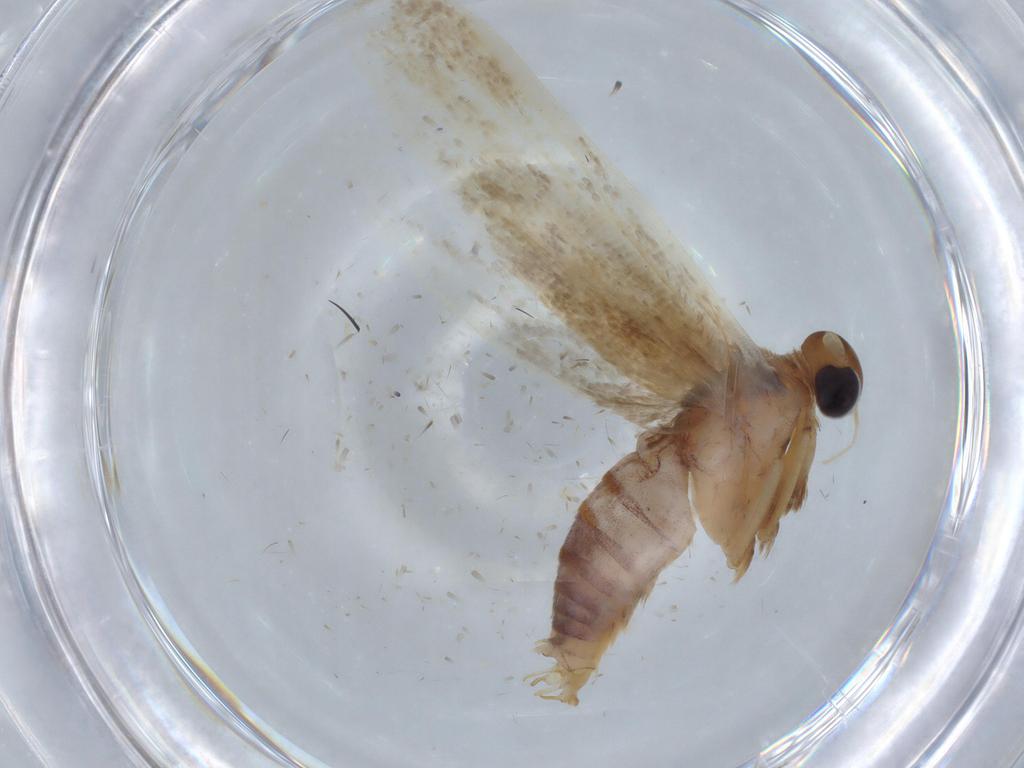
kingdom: Animalia
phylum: Arthropoda
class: Insecta
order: Lepidoptera
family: Blastobasidae
